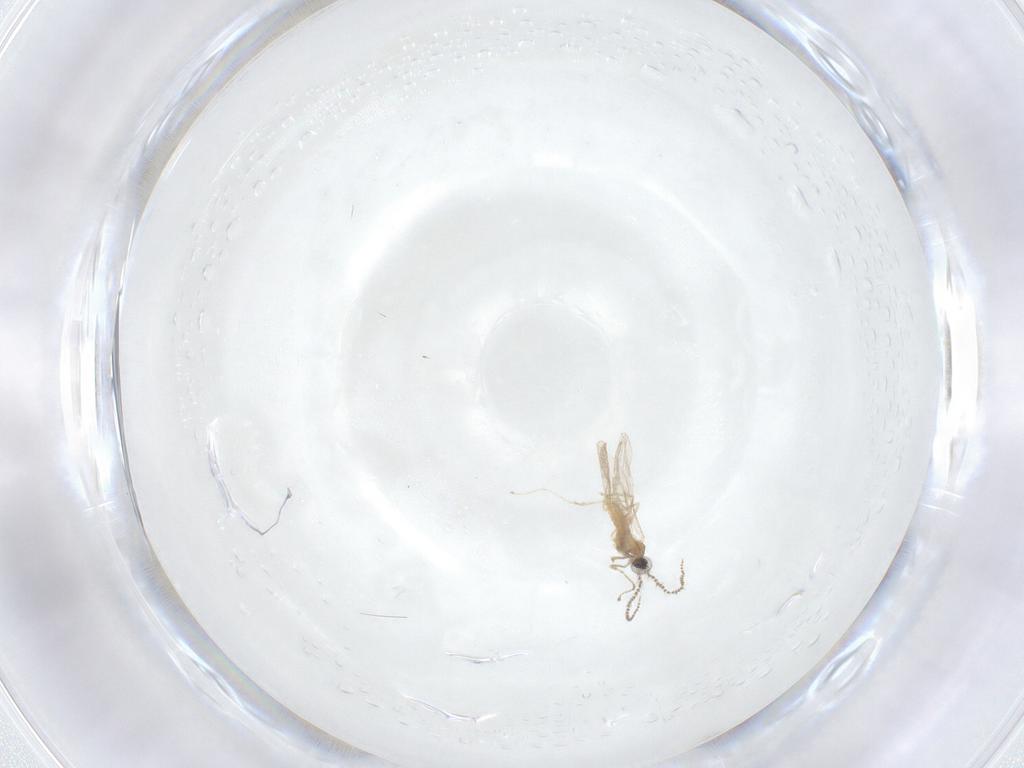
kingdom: Animalia
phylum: Arthropoda
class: Insecta
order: Diptera
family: Cecidomyiidae
